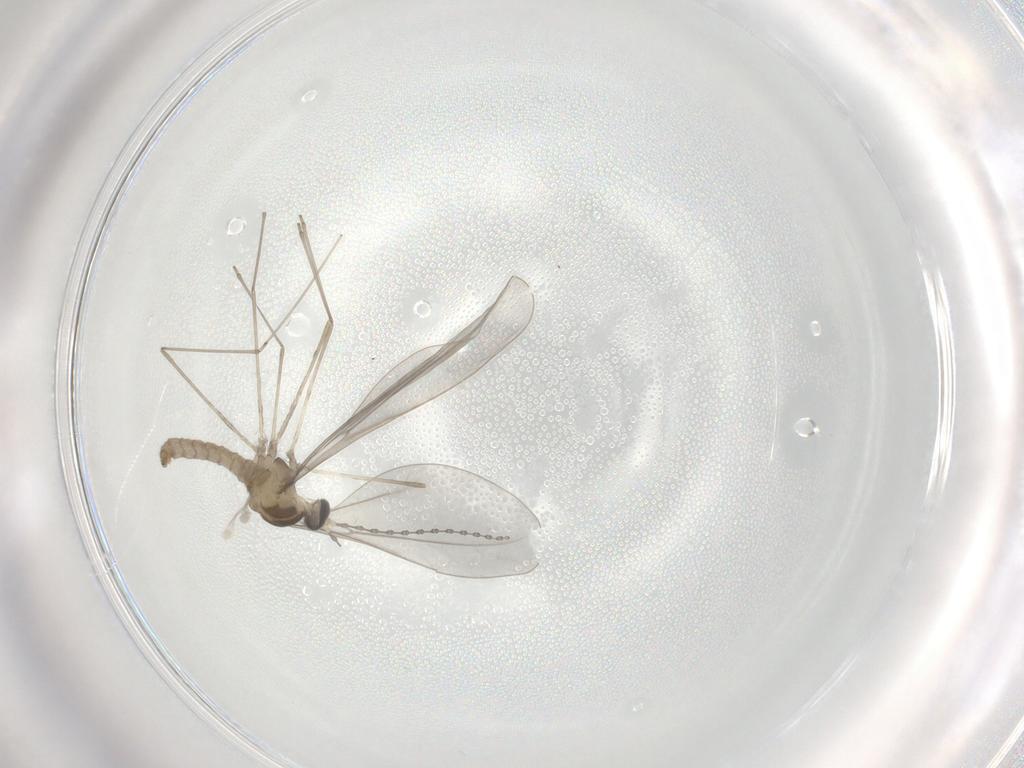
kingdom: Animalia
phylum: Arthropoda
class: Insecta
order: Diptera
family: Cecidomyiidae
